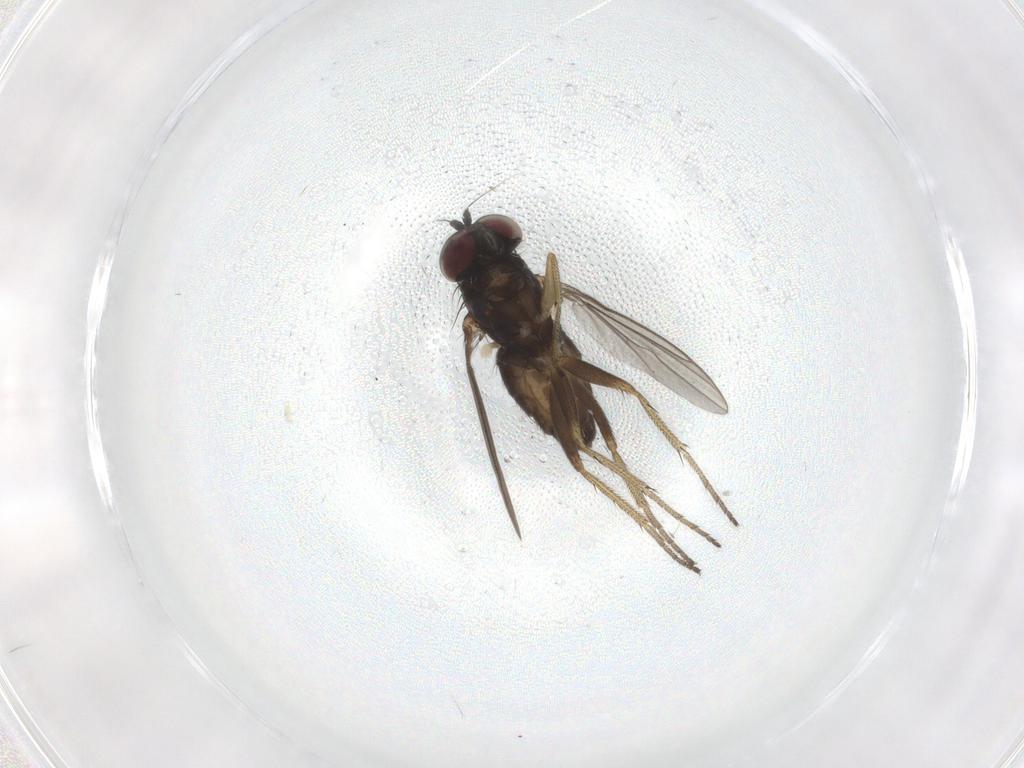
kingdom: Animalia
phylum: Arthropoda
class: Insecta
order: Diptera
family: Dolichopodidae
